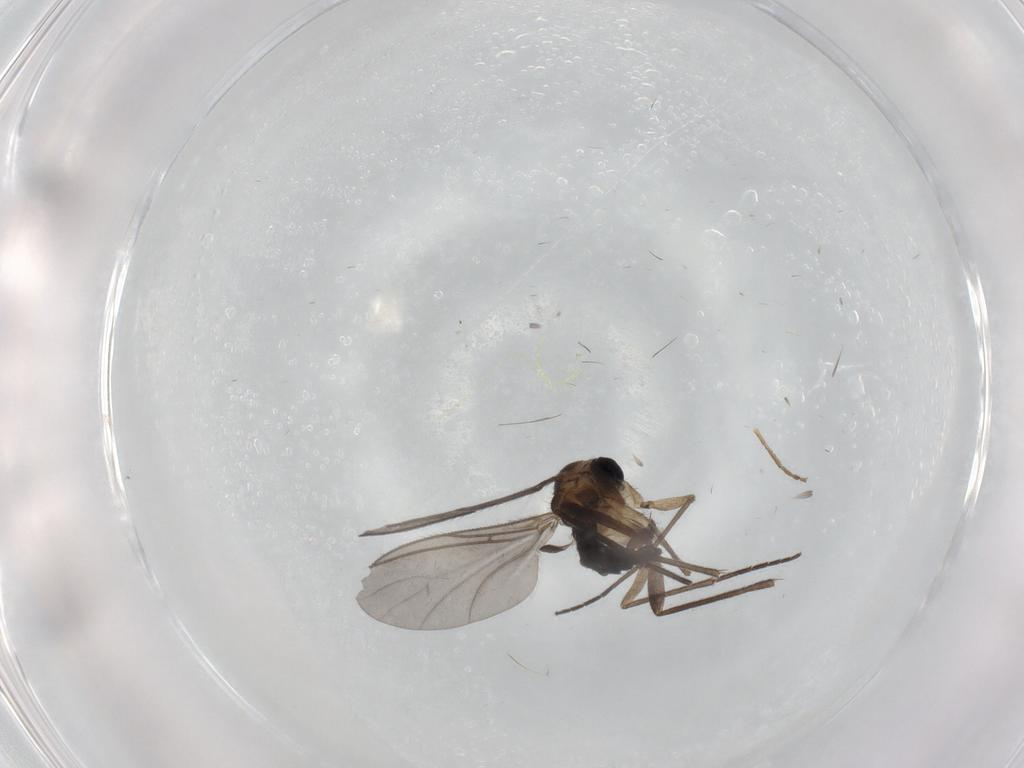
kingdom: Animalia
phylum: Arthropoda
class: Insecta
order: Diptera
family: Sciaridae
